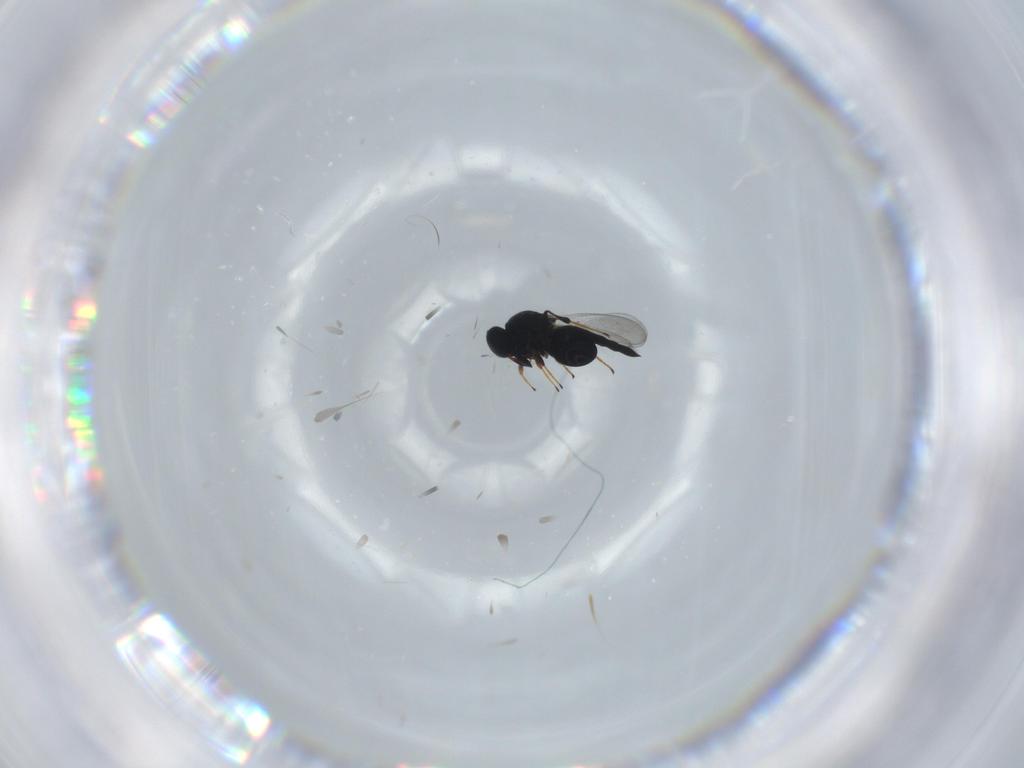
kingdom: Animalia
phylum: Arthropoda
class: Insecta
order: Hymenoptera
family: Platygastridae
